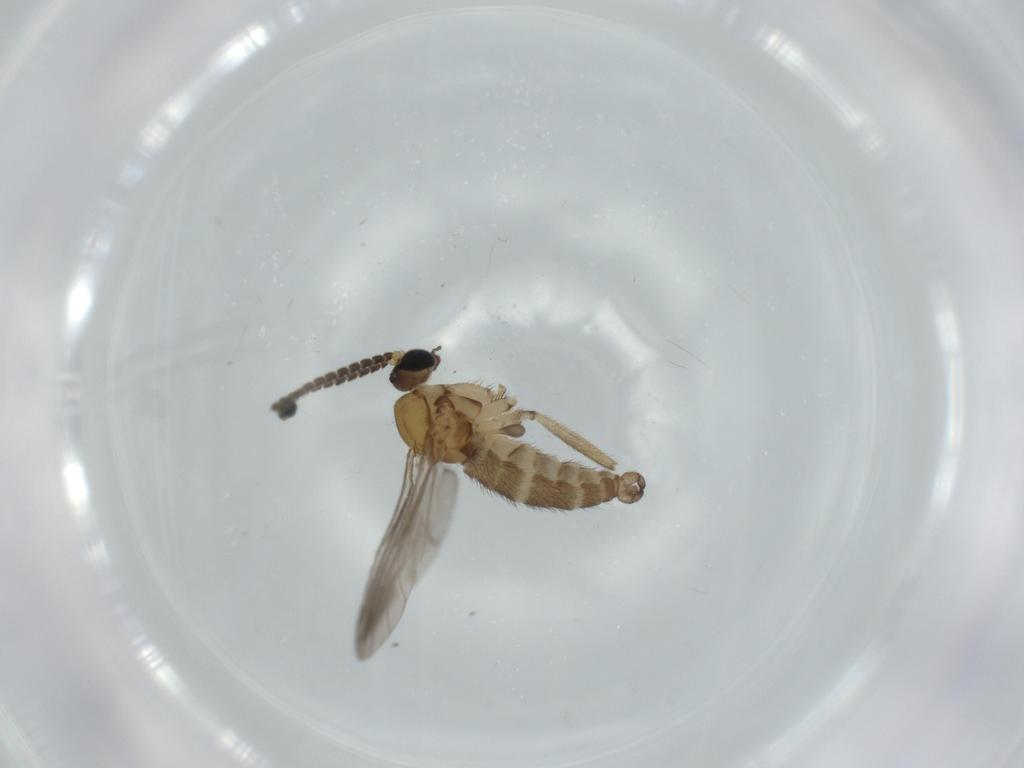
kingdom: Animalia
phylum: Arthropoda
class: Insecta
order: Diptera
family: Sciaridae
